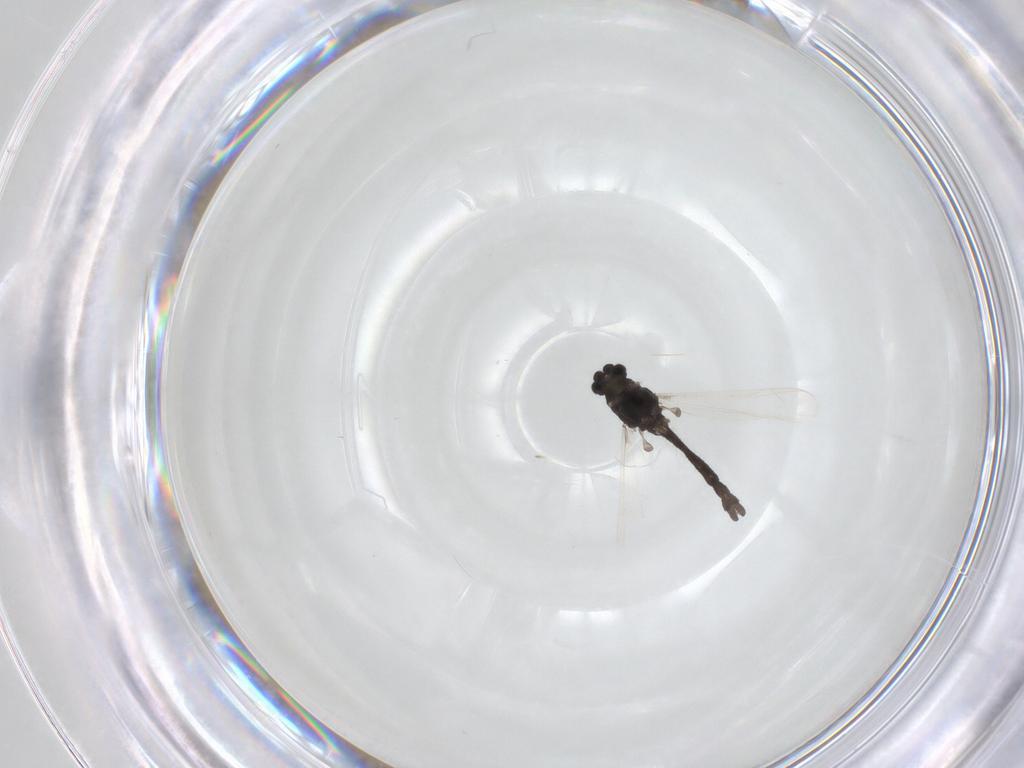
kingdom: Animalia
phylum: Arthropoda
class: Insecta
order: Diptera
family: Chironomidae
